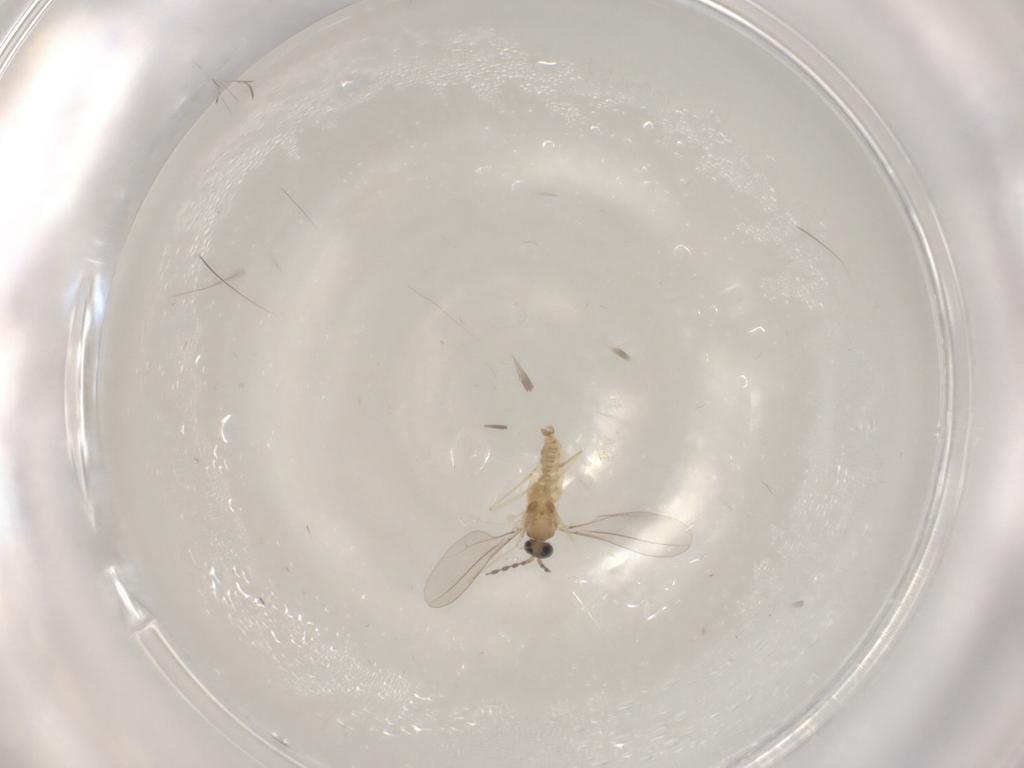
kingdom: Animalia
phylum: Arthropoda
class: Insecta
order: Diptera
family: Cecidomyiidae
